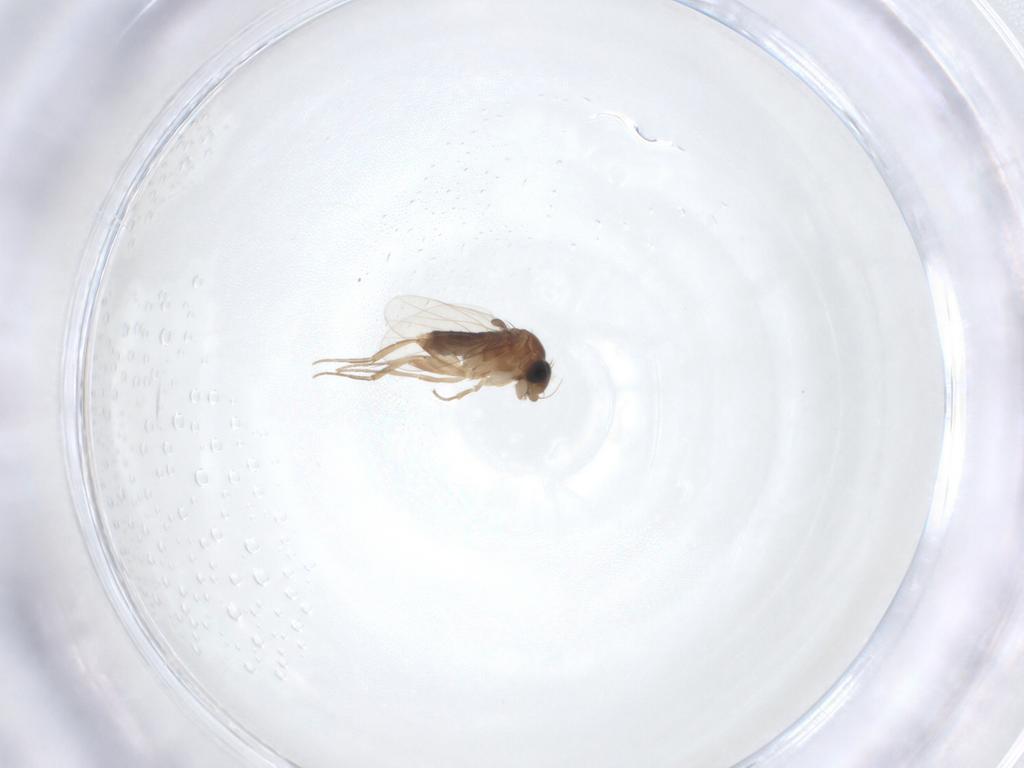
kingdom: Animalia
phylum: Arthropoda
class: Insecta
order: Diptera
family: Phoridae
